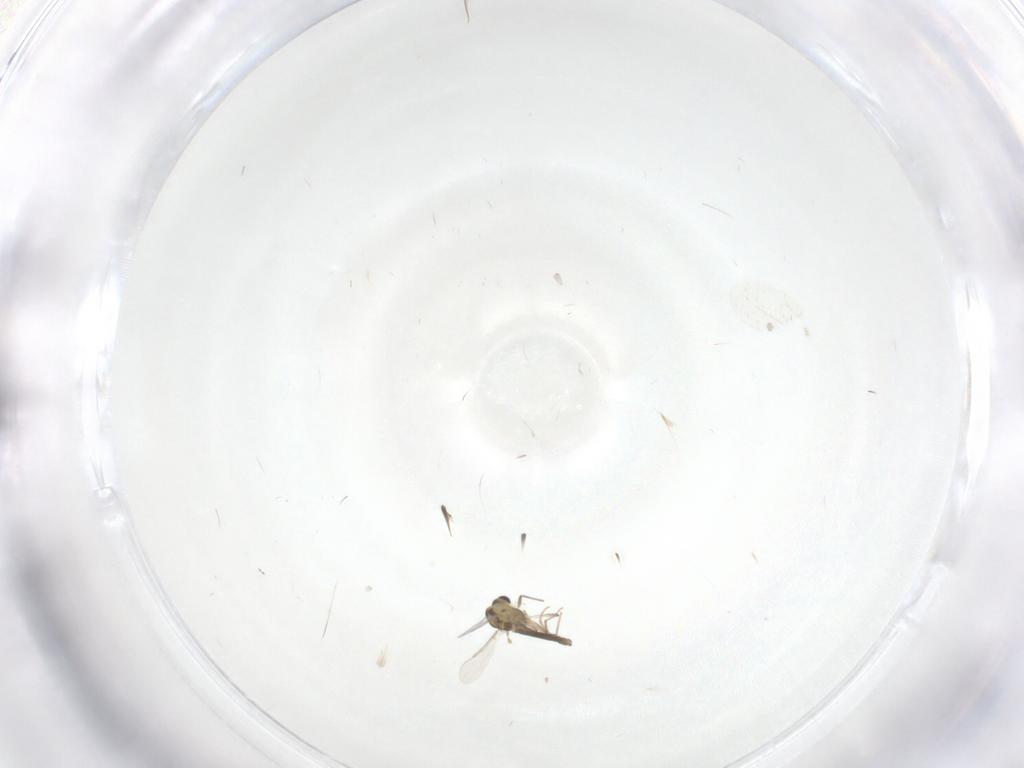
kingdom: Animalia
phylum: Arthropoda
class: Insecta
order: Diptera
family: Chironomidae
